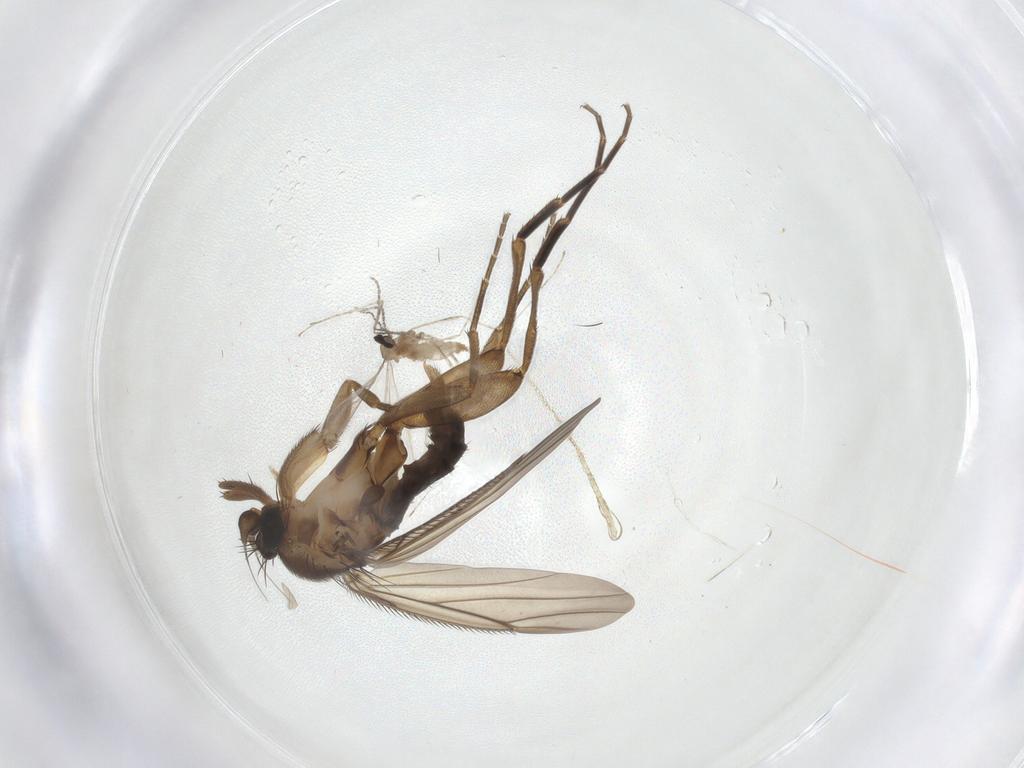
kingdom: Animalia
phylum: Arthropoda
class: Insecta
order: Diptera
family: Cecidomyiidae
